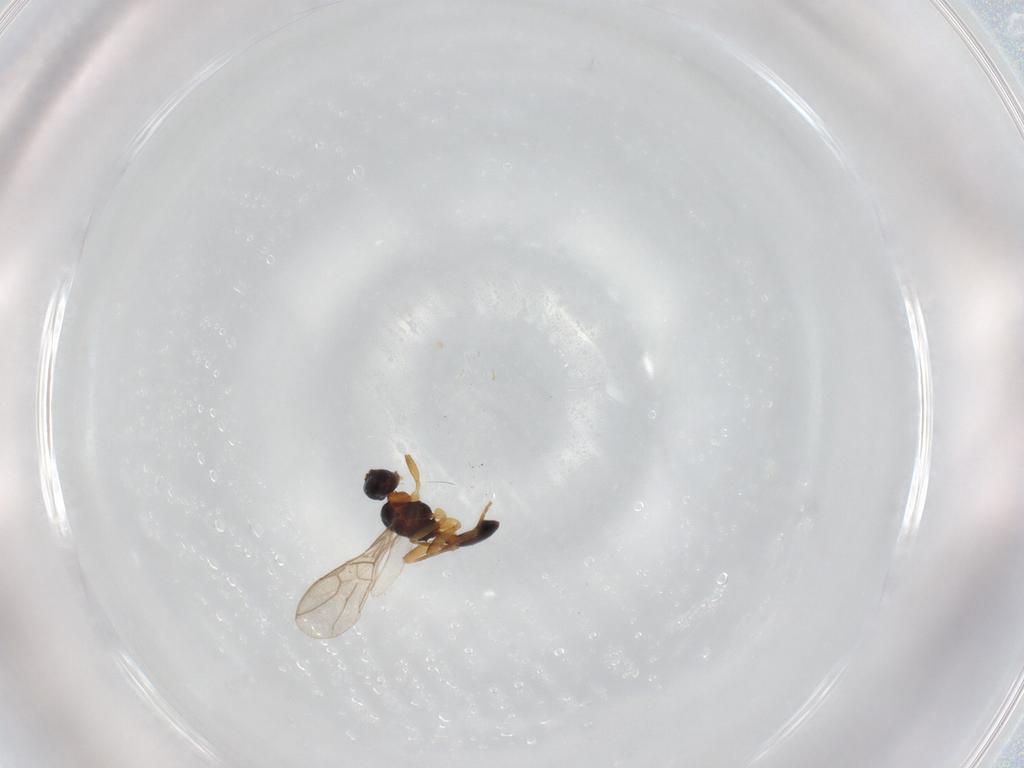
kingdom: Animalia
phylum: Arthropoda
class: Insecta
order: Hymenoptera
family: Braconidae
